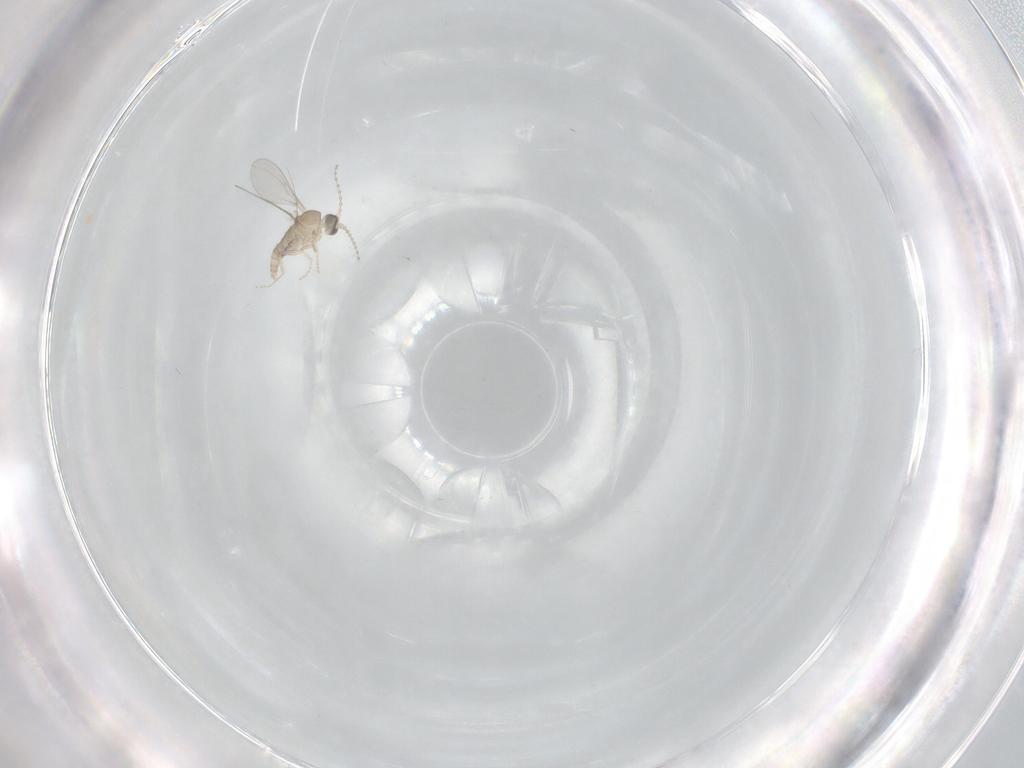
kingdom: Animalia
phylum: Arthropoda
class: Insecta
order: Diptera
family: Phoridae
